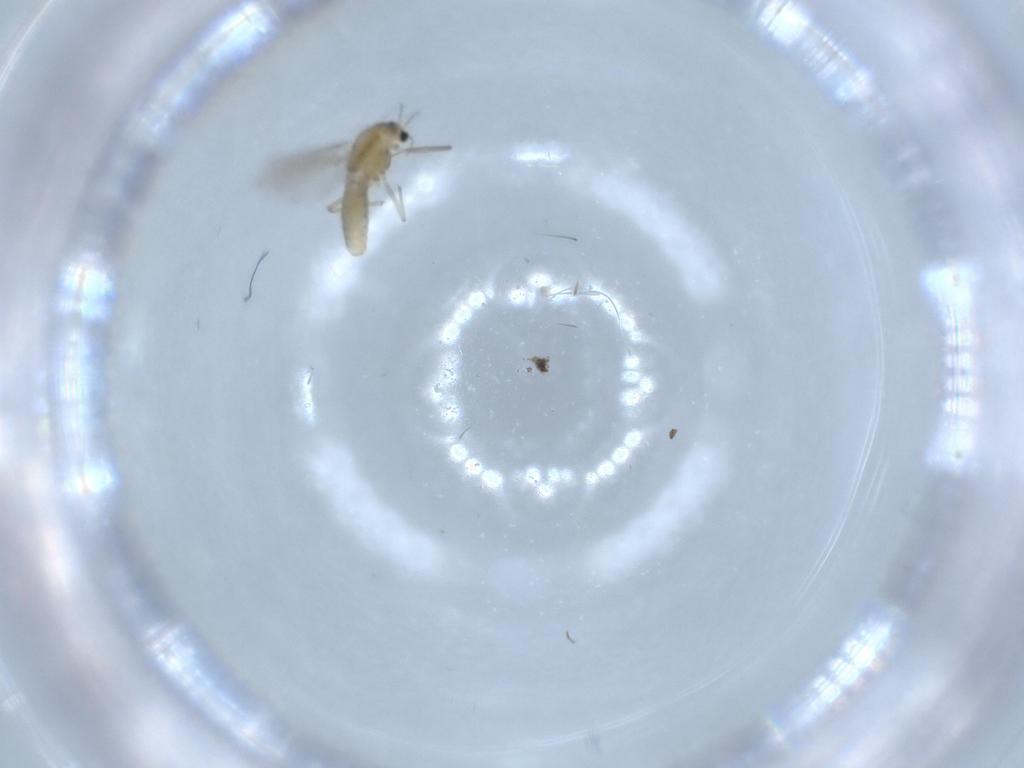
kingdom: Animalia
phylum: Arthropoda
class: Insecta
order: Diptera
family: Chironomidae
